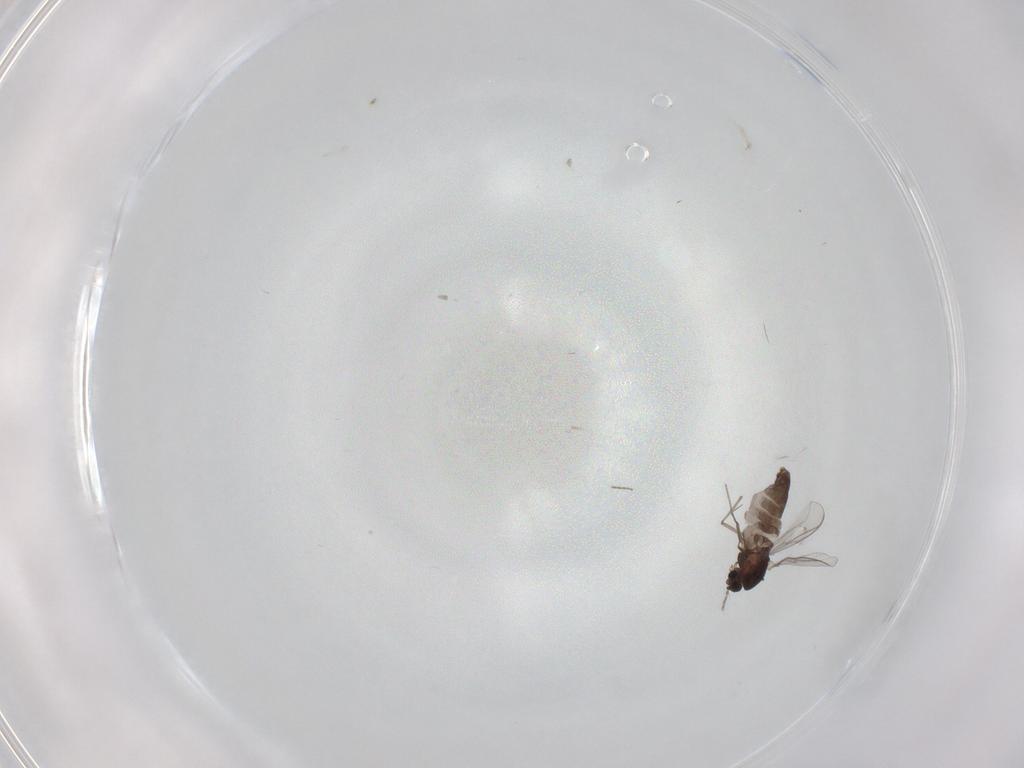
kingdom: Animalia
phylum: Arthropoda
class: Insecta
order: Diptera
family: Chironomidae
